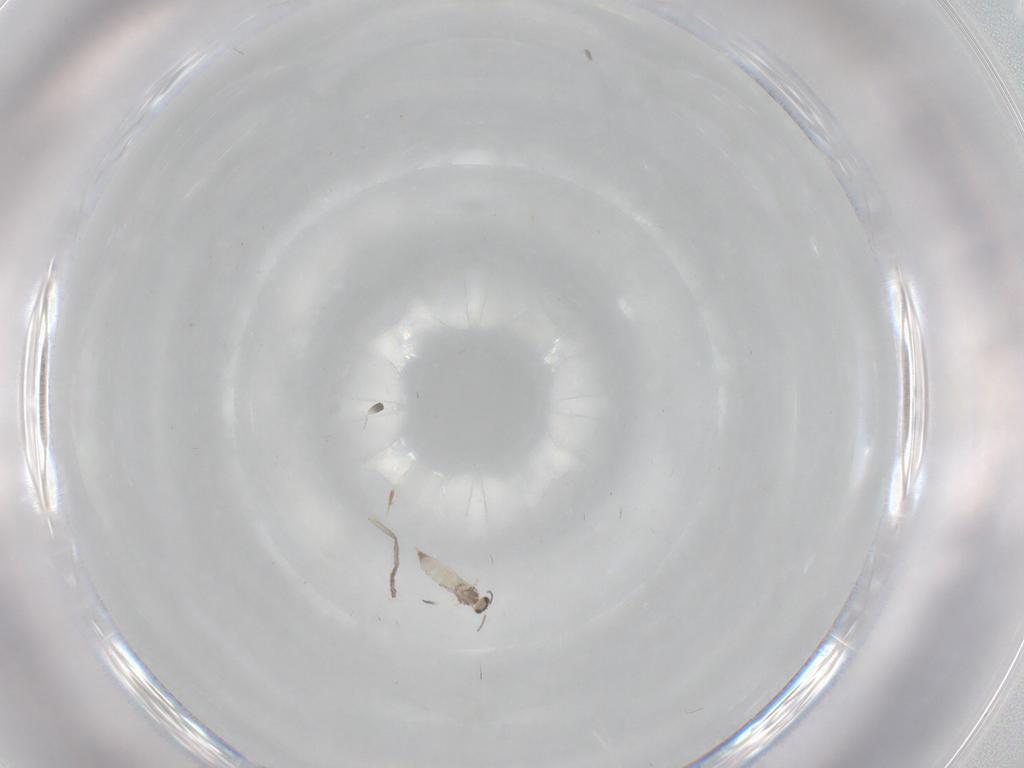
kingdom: Animalia
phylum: Arthropoda
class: Insecta
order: Diptera
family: Cecidomyiidae
